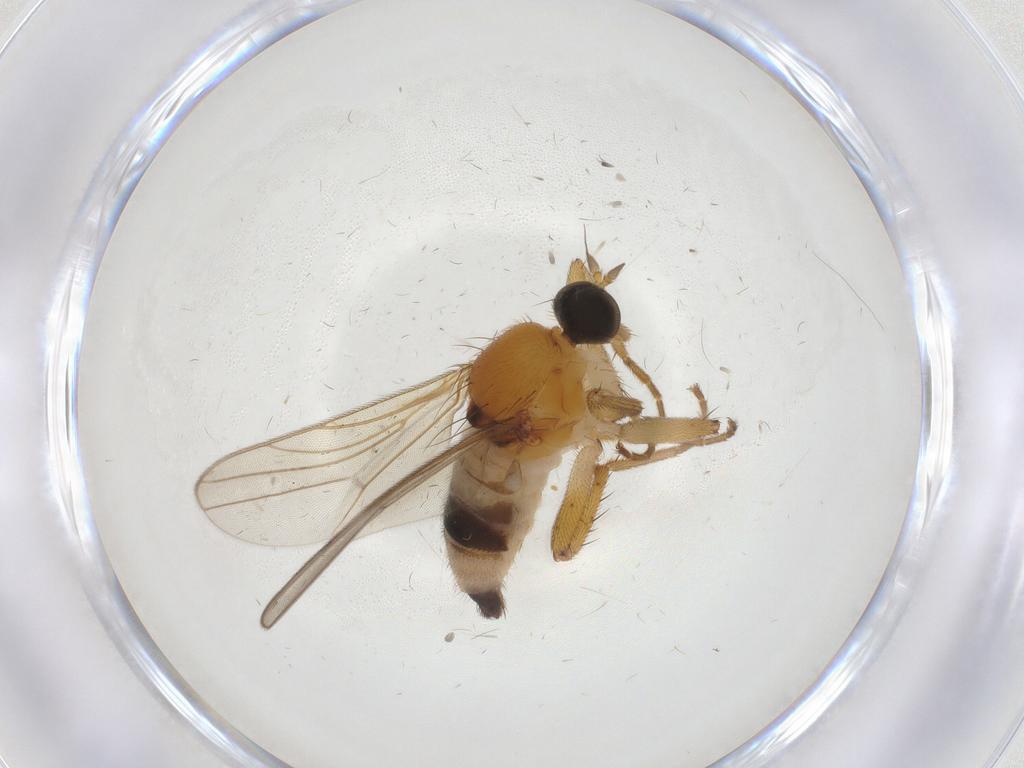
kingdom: Animalia
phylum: Arthropoda
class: Insecta
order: Diptera
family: Hybotidae
